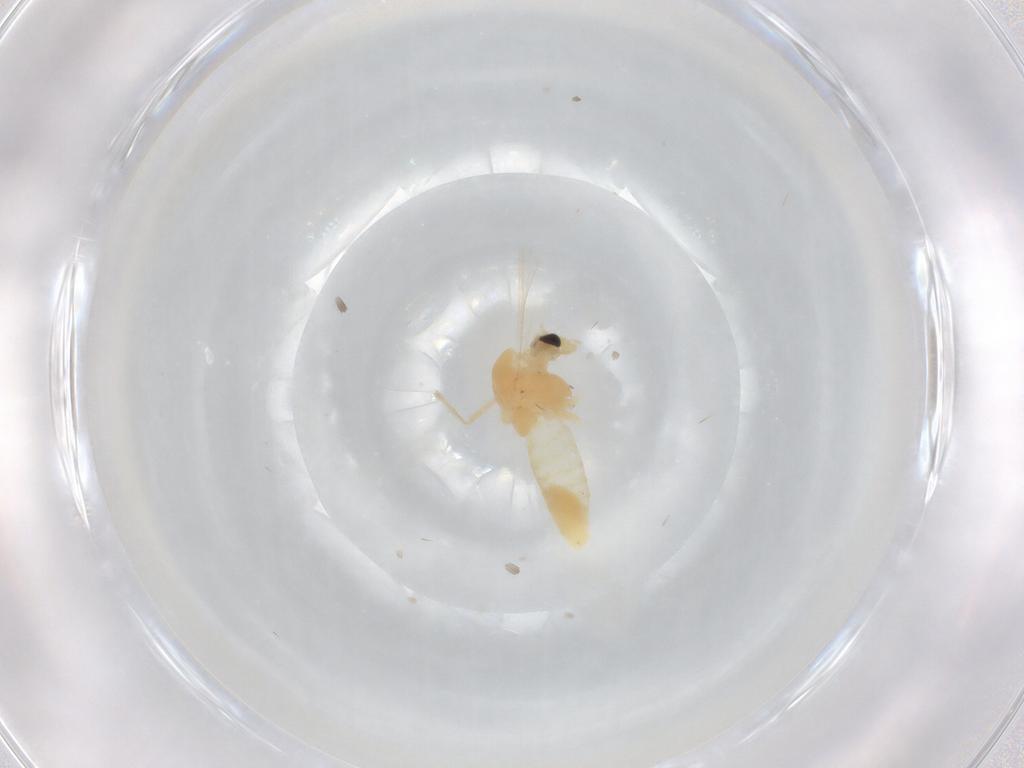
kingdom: Animalia
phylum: Arthropoda
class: Insecta
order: Diptera
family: Chironomidae
